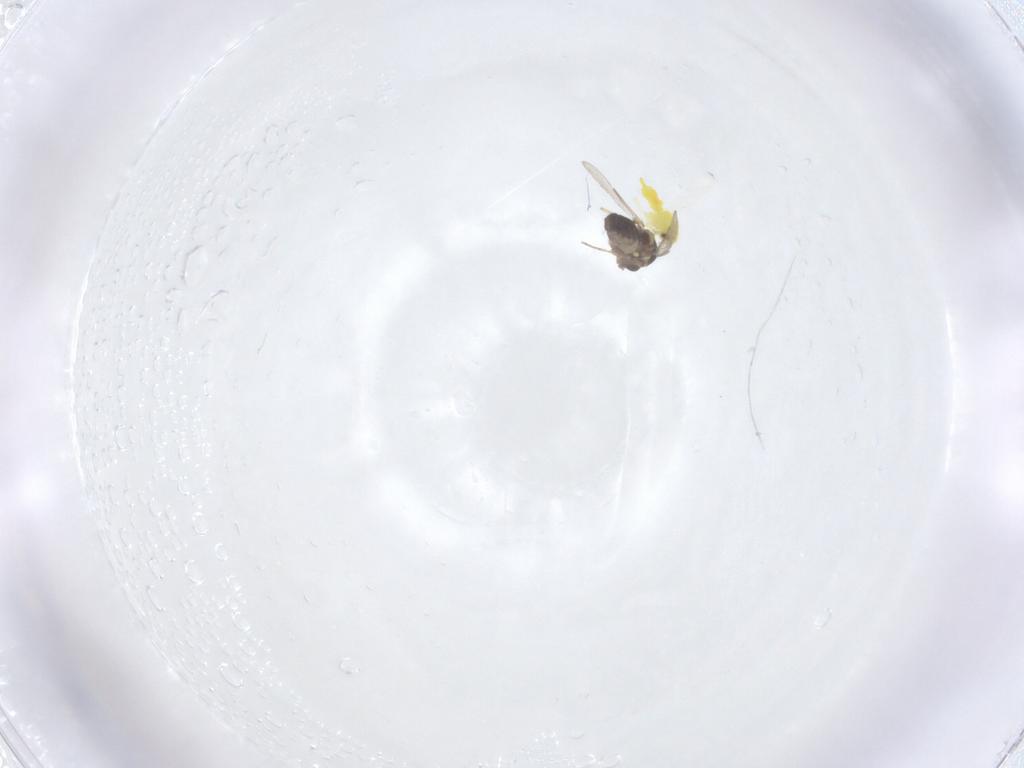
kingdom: Animalia
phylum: Arthropoda
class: Insecta
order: Diptera
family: Ceratopogonidae
